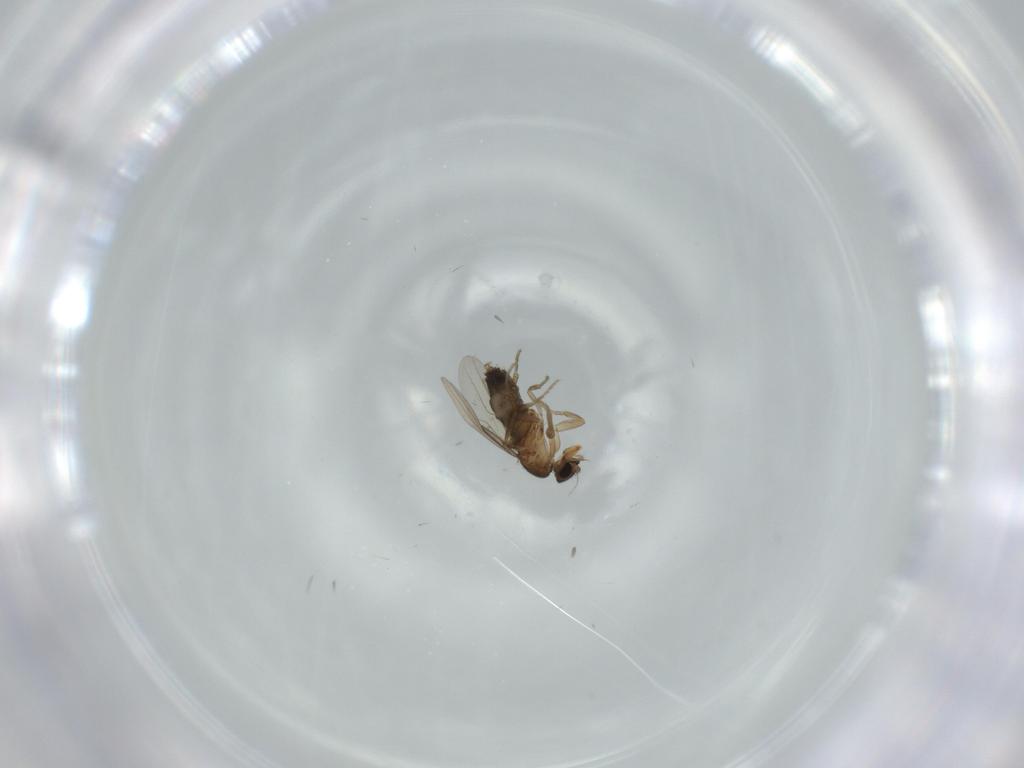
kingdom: Animalia
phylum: Arthropoda
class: Insecta
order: Diptera
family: Phoridae
